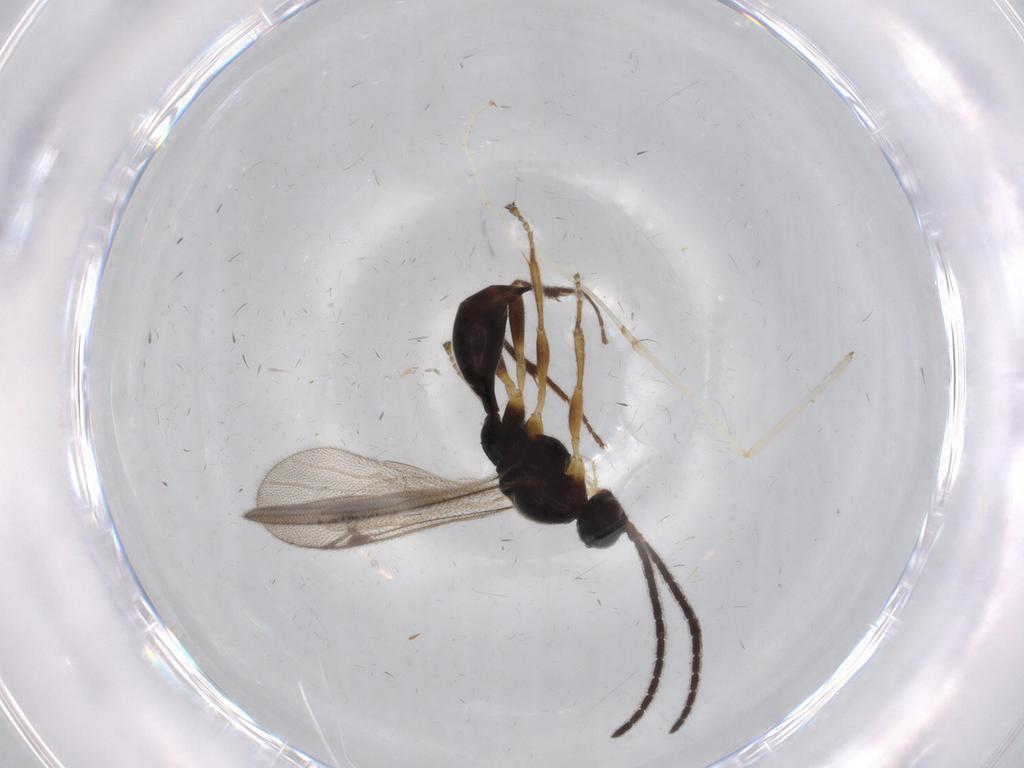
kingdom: Animalia
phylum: Arthropoda
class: Insecta
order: Hymenoptera
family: Proctotrupidae
